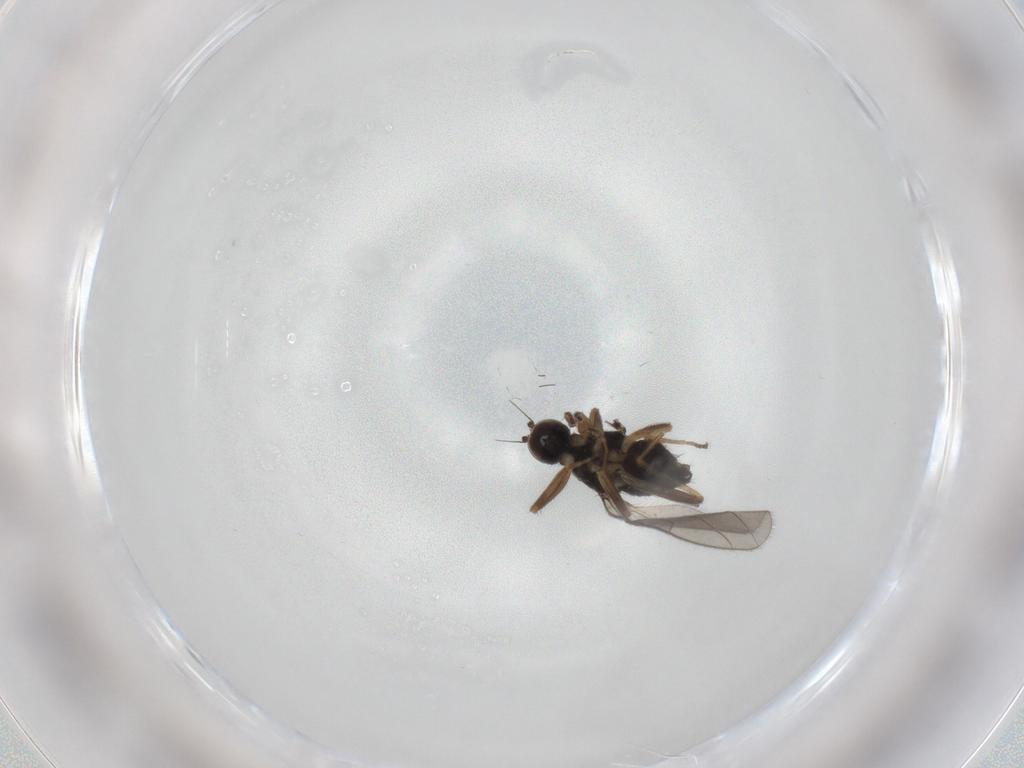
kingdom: Animalia
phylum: Arthropoda
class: Insecta
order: Diptera
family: Hybotidae
